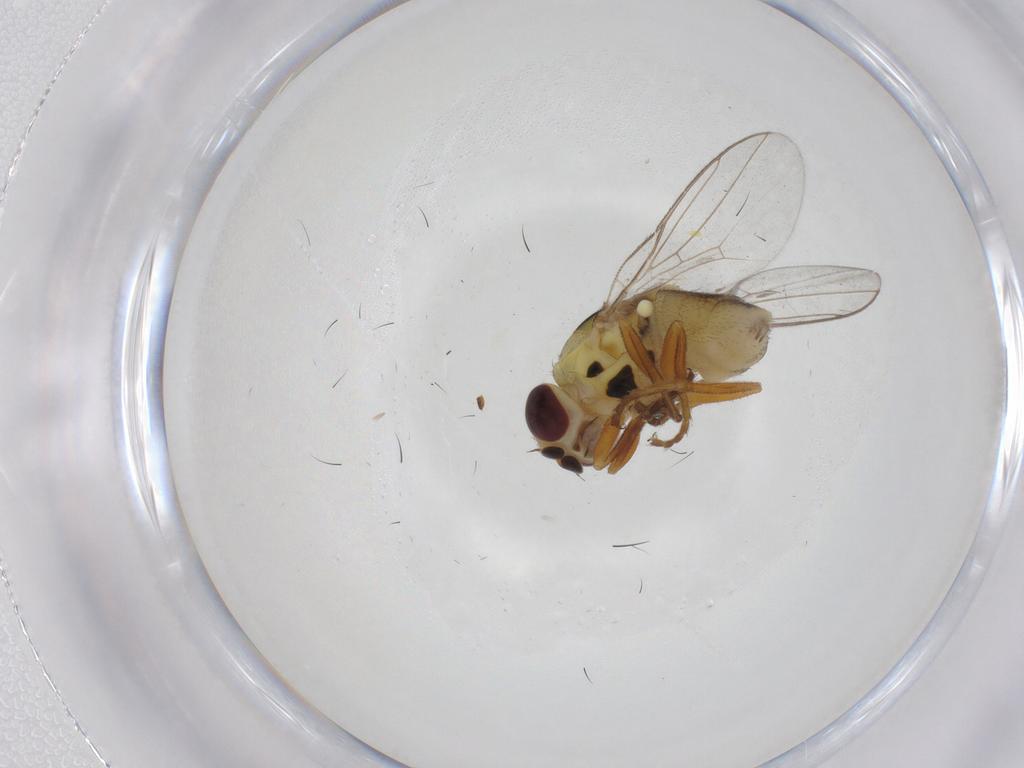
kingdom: Animalia
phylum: Arthropoda
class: Insecta
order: Diptera
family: Chloropidae
